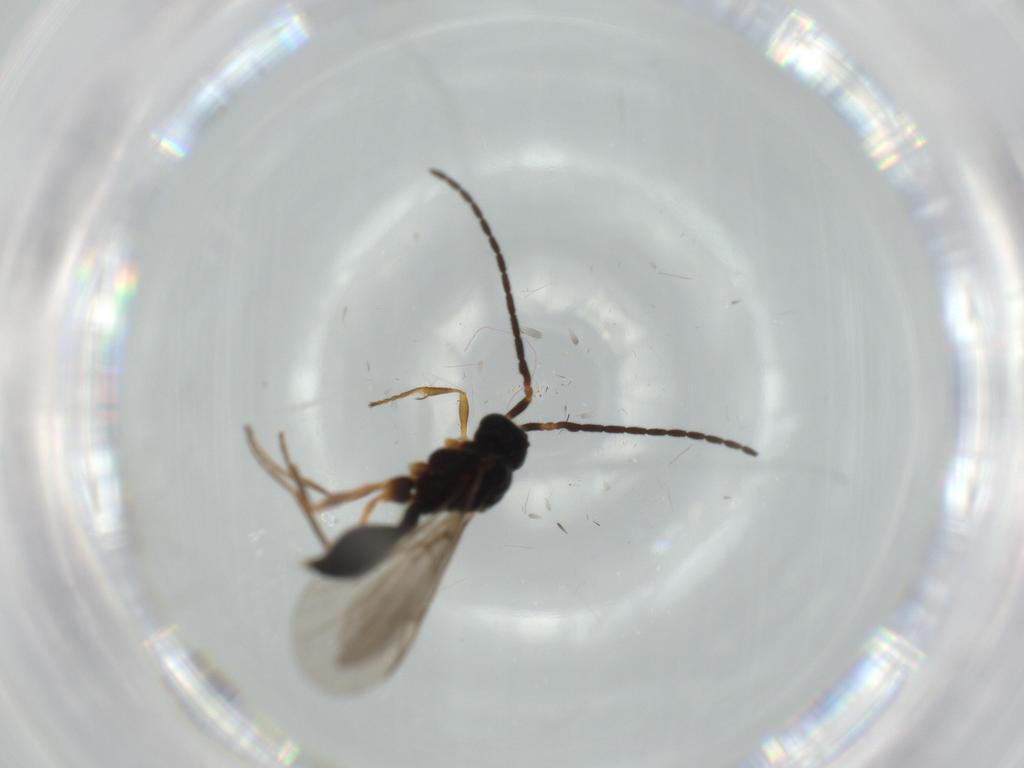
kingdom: Animalia
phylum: Arthropoda
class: Insecta
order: Hymenoptera
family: Diapriidae
